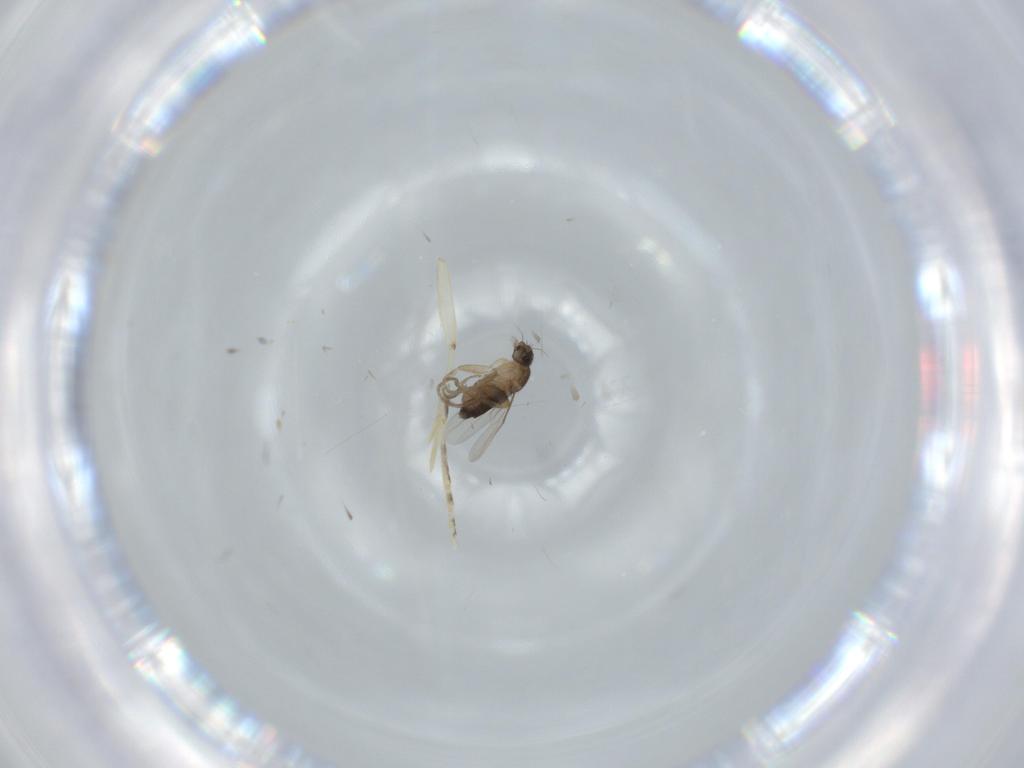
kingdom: Animalia
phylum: Arthropoda
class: Insecta
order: Diptera
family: Phoridae
